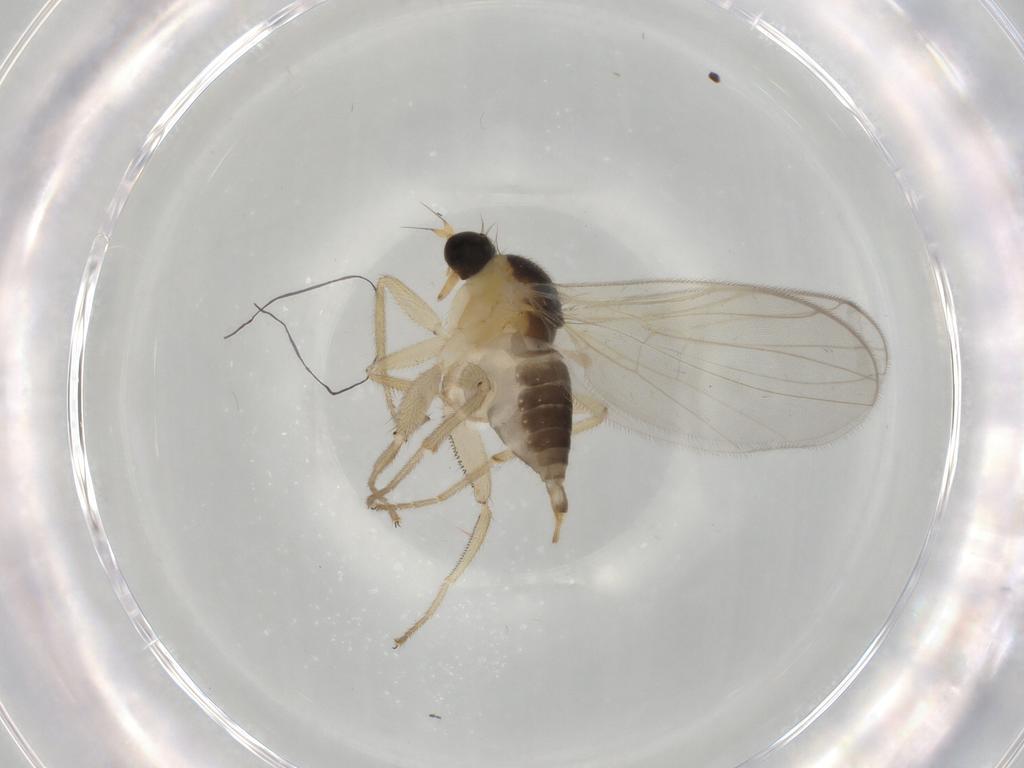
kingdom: Animalia
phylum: Arthropoda
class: Insecta
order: Diptera
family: Hybotidae
